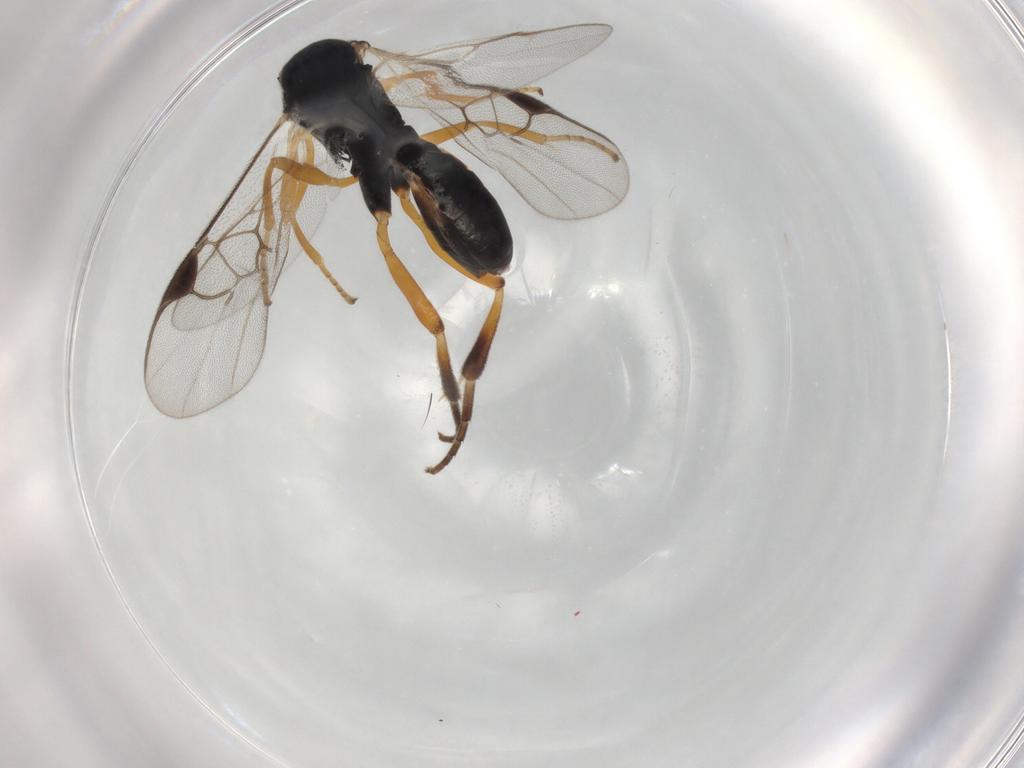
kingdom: Animalia
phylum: Arthropoda
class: Insecta
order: Hymenoptera
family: Braconidae
